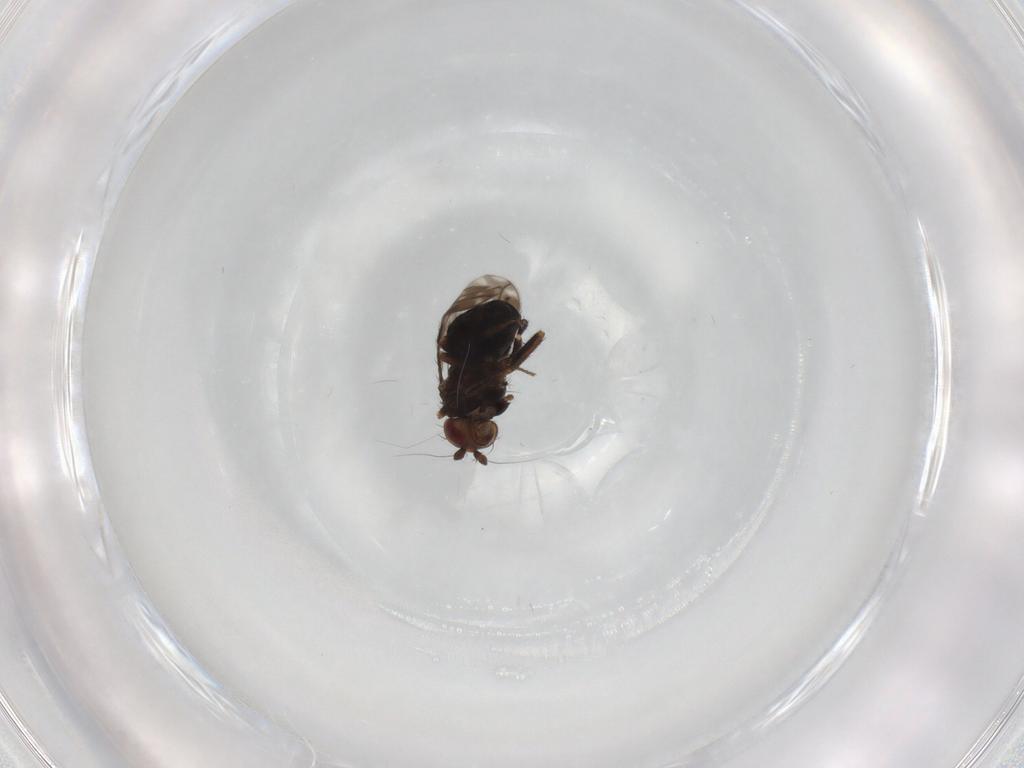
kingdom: Animalia
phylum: Arthropoda
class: Insecta
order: Diptera
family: Sphaeroceridae
